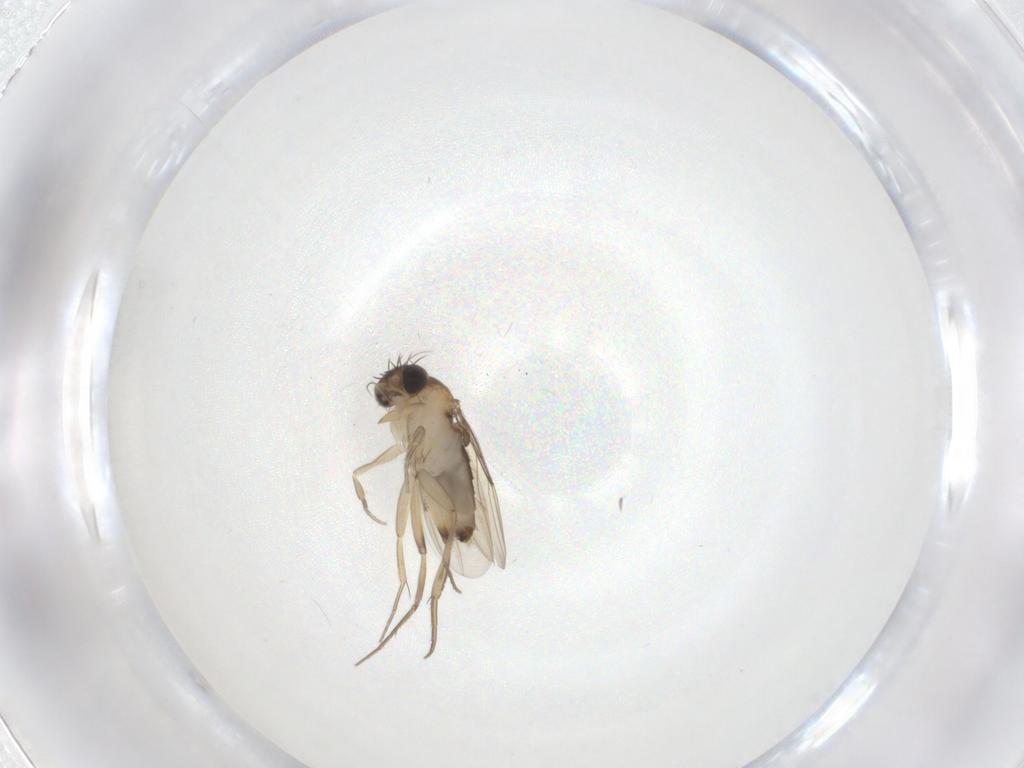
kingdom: Animalia
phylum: Arthropoda
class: Insecta
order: Diptera
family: Phoridae
